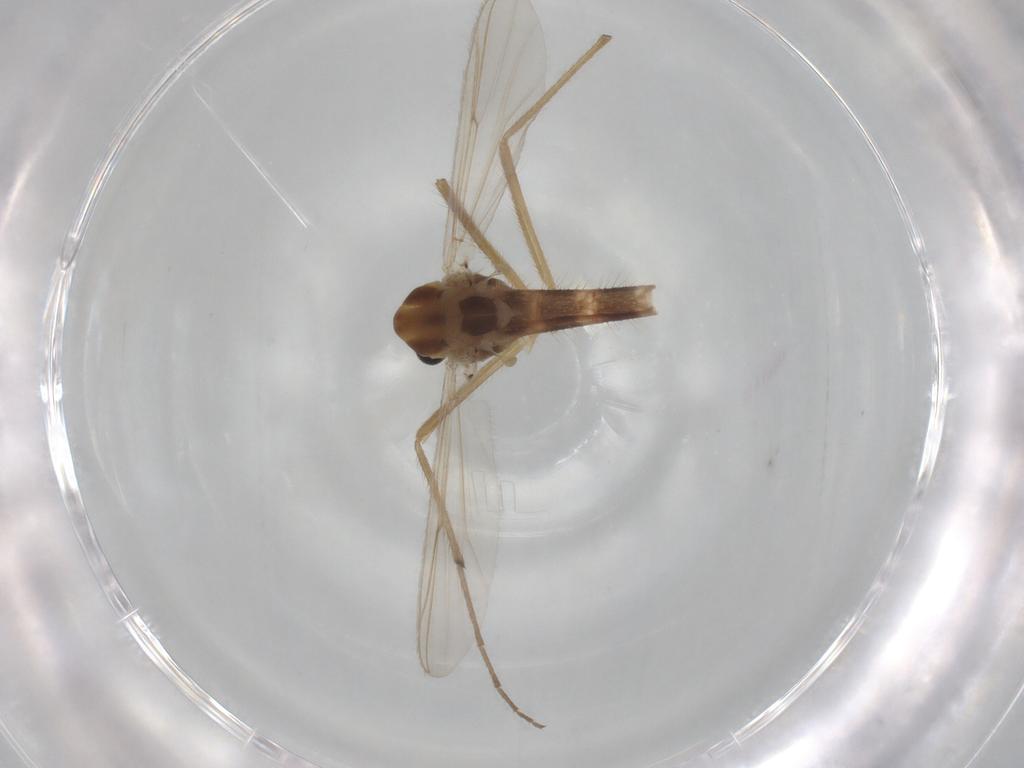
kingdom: Animalia
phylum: Arthropoda
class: Insecta
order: Diptera
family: Chironomidae
